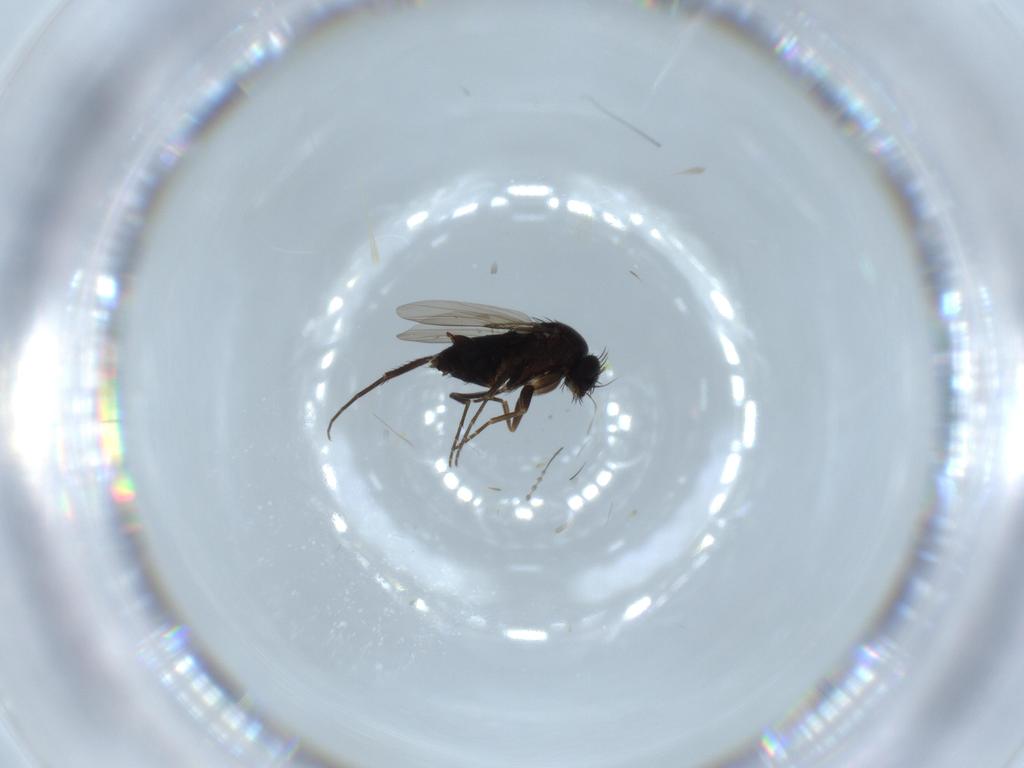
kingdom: Animalia
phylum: Arthropoda
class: Insecta
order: Diptera
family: Phoridae
